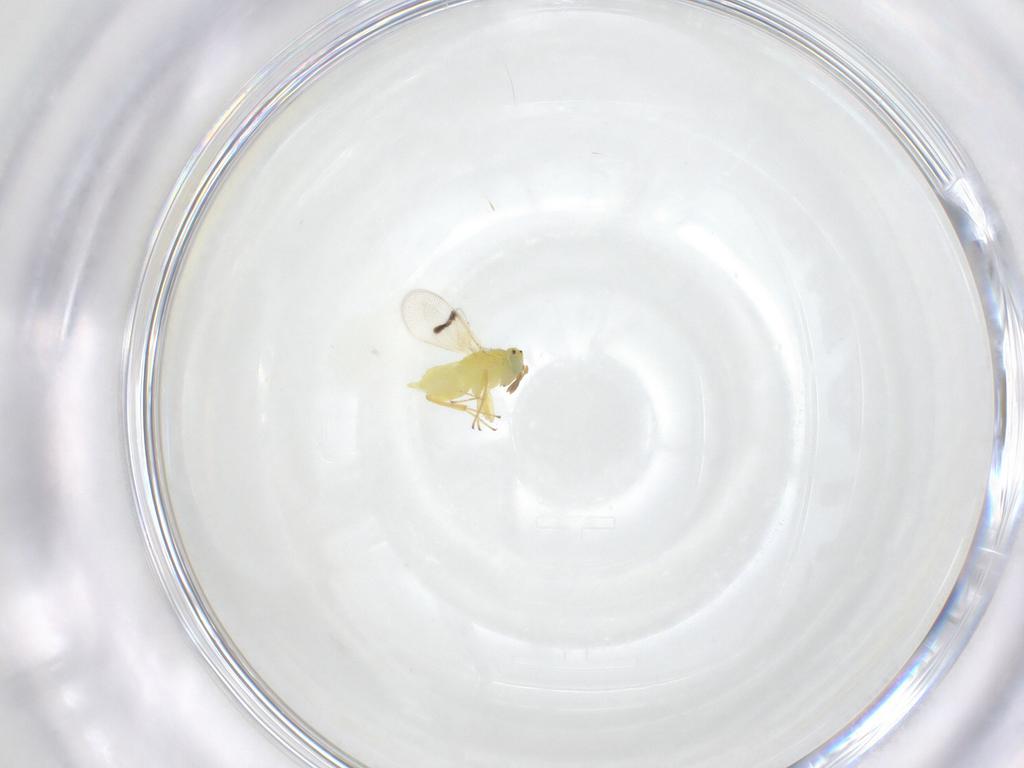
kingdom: Animalia
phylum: Arthropoda
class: Insecta
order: Hymenoptera
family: Aphelinidae
